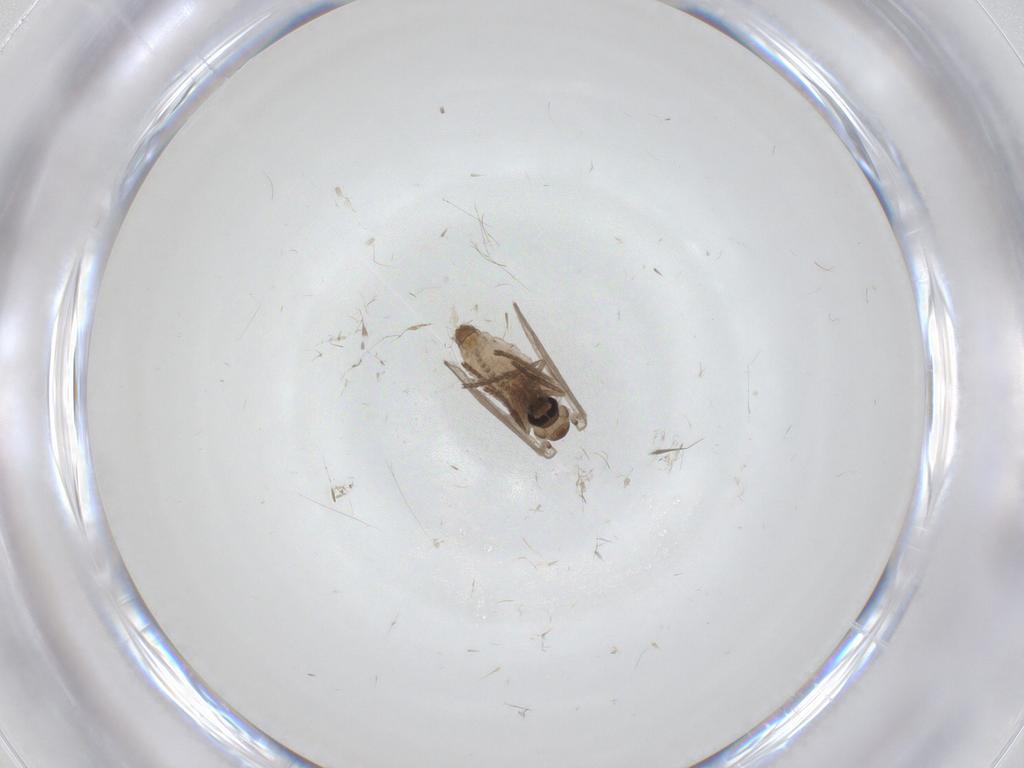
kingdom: Animalia
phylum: Arthropoda
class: Insecta
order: Diptera
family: Psychodidae
